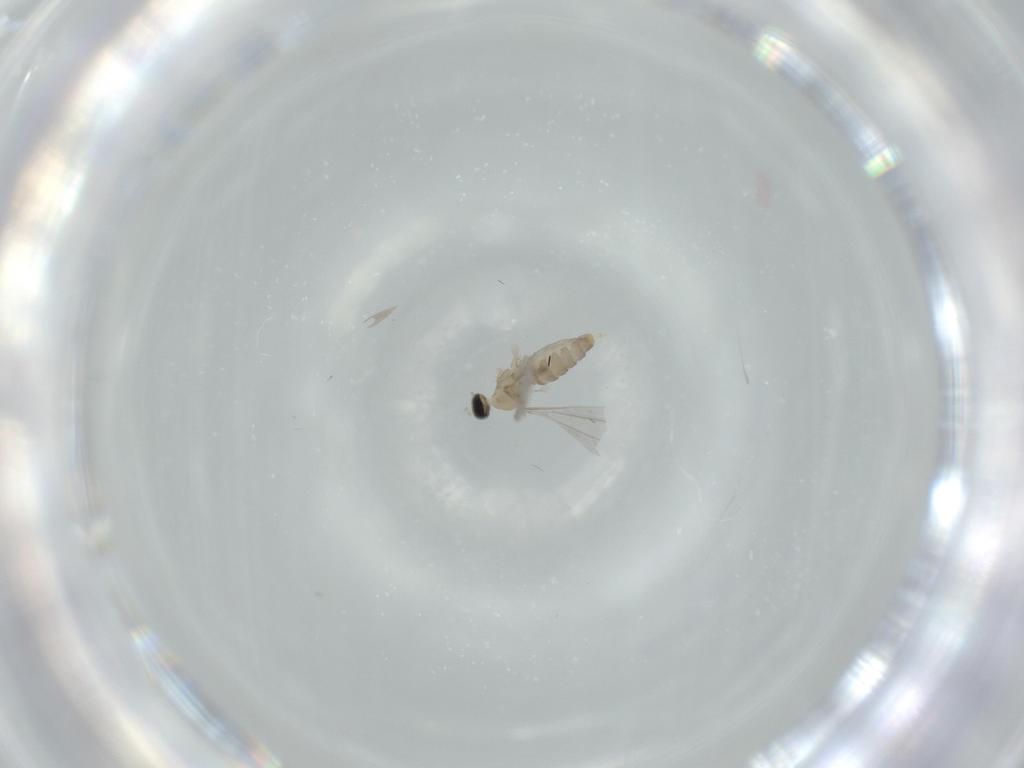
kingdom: Animalia
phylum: Arthropoda
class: Insecta
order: Diptera
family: Cecidomyiidae
